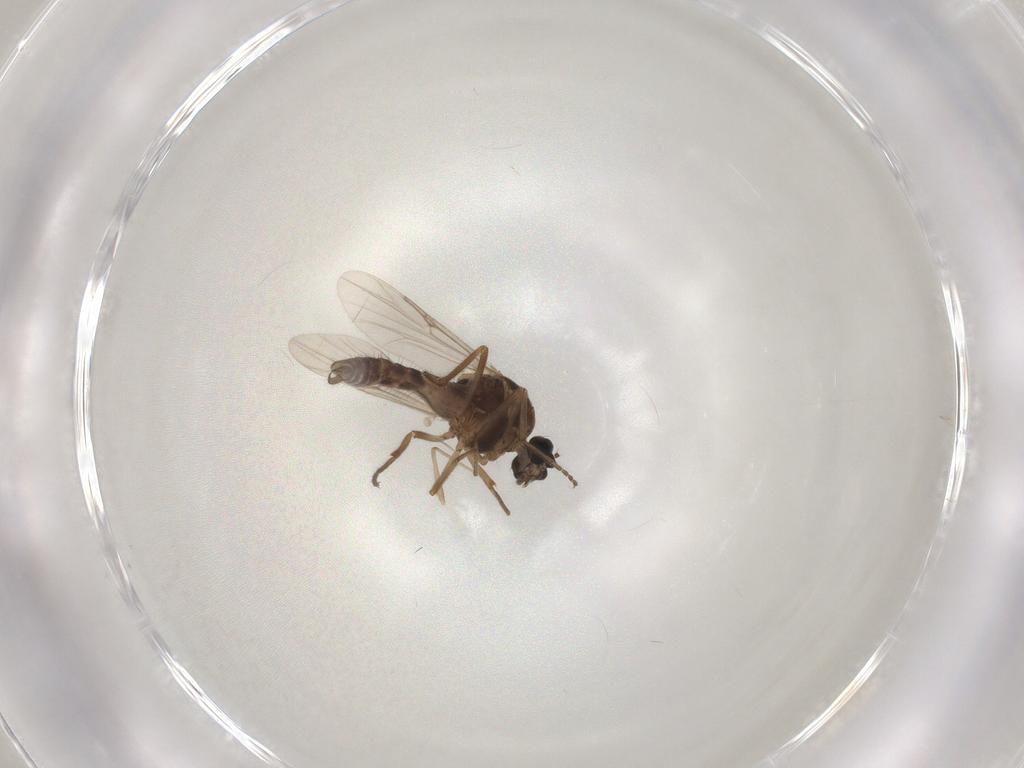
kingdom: Animalia
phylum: Arthropoda
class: Insecta
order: Diptera
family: Ceratopogonidae
